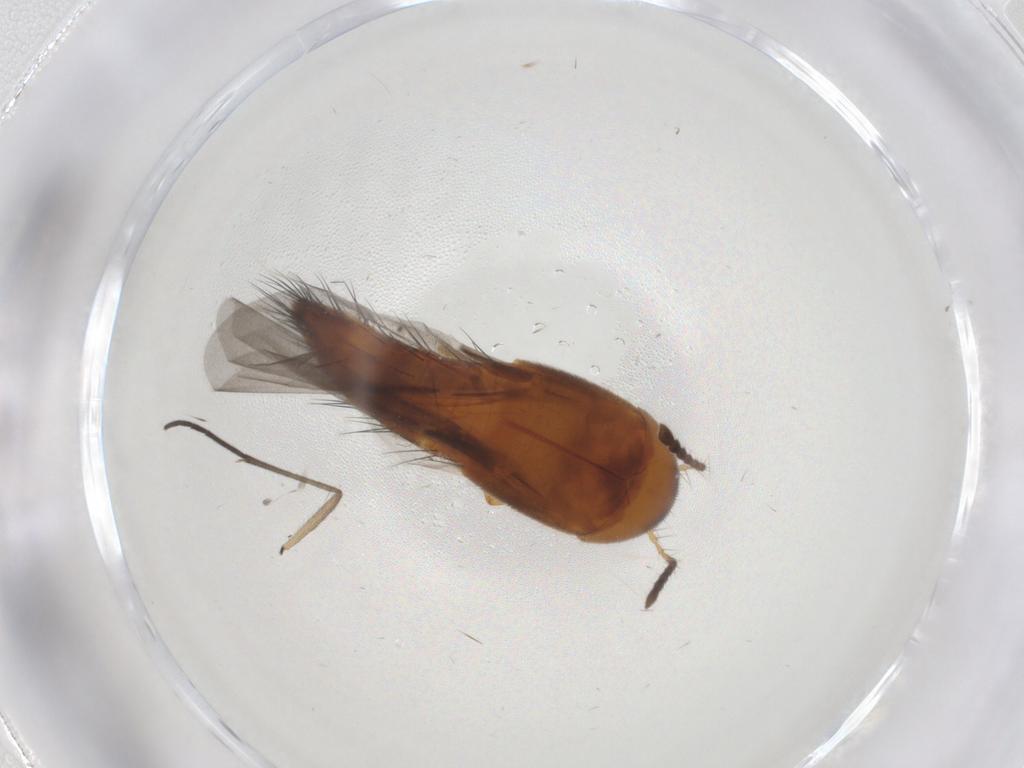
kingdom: Animalia
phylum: Arthropoda
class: Insecta
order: Coleoptera
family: Staphylinidae
